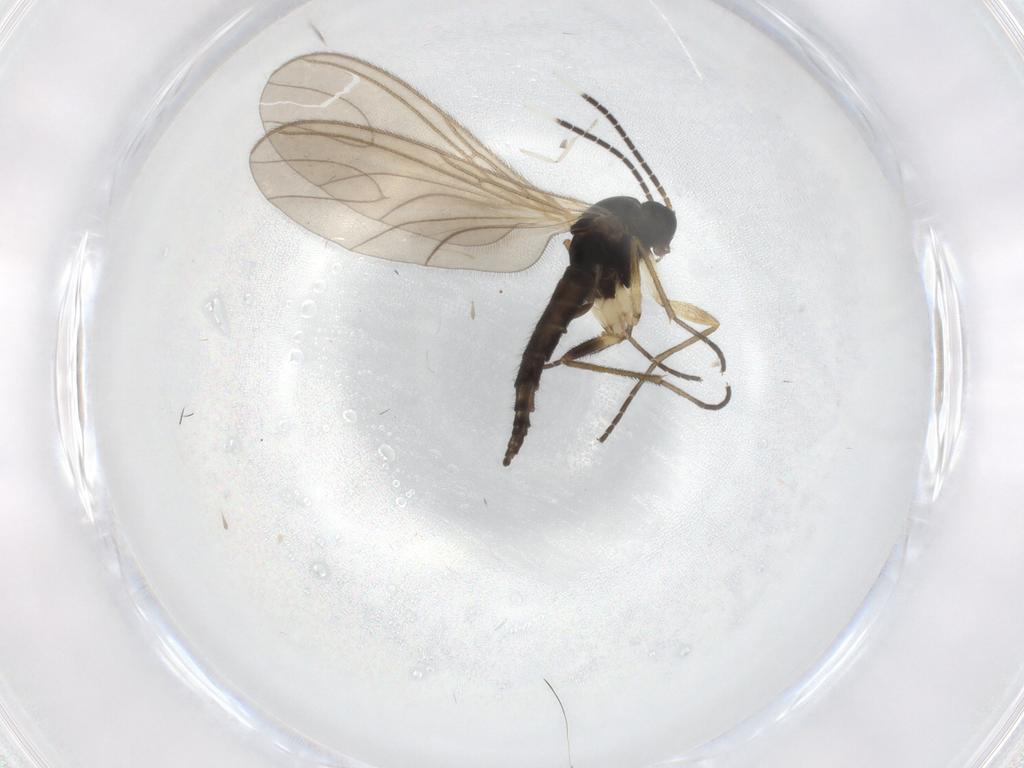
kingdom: Animalia
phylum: Arthropoda
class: Insecta
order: Diptera
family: Sciaridae
